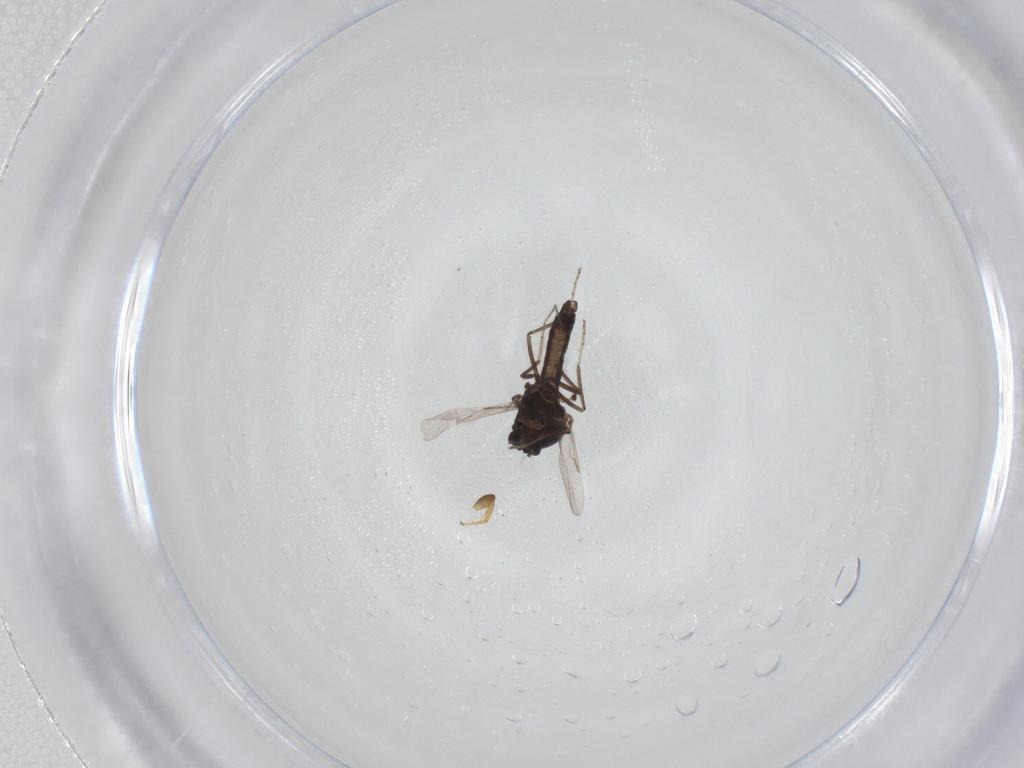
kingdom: Animalia
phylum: Arthropoda
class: Insecta
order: Diptera
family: Ceratopogonidae
